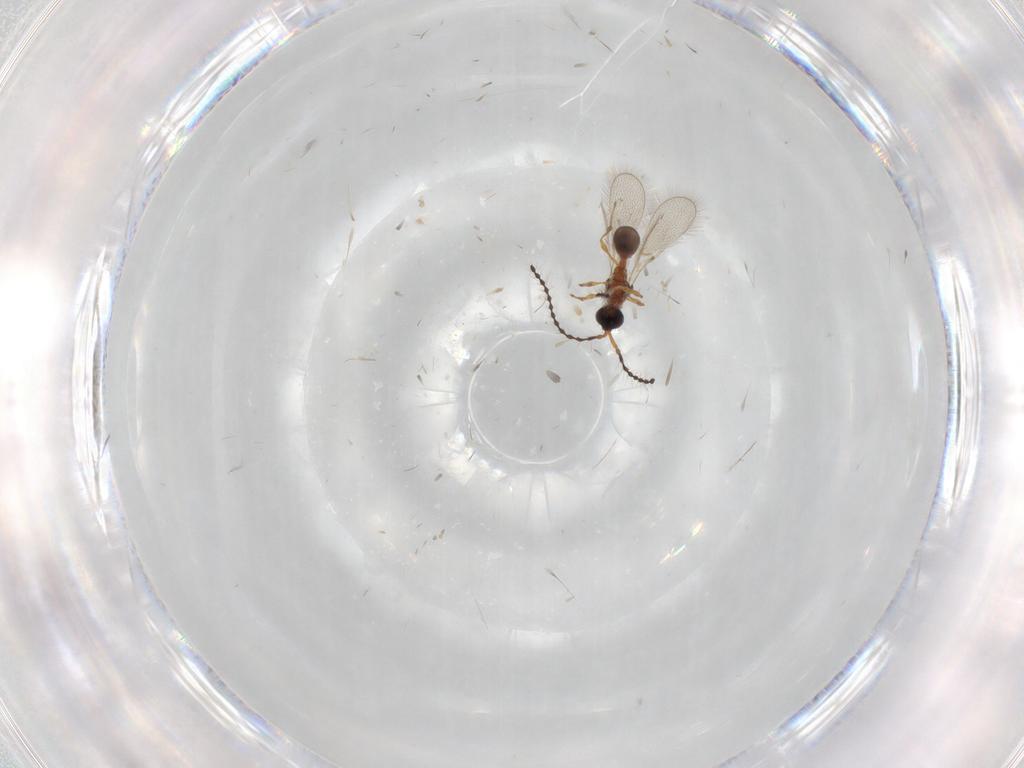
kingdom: Animalia
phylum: Arthropoda
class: Insecta
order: Hymenoptera
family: Diapriidae
